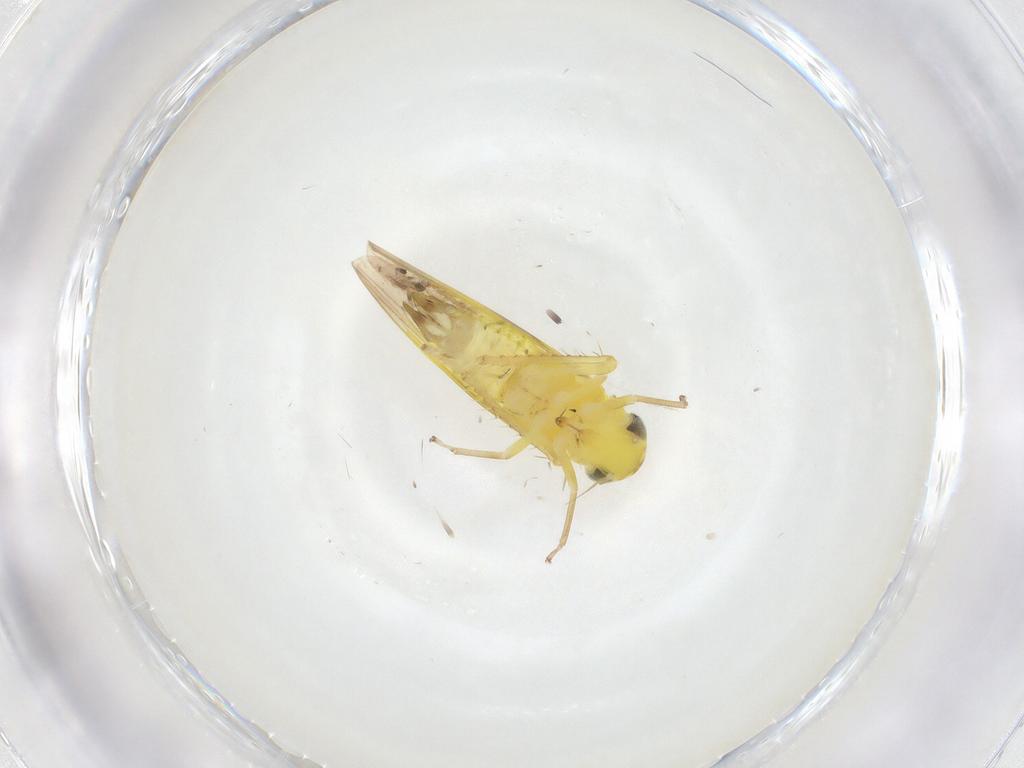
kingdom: Animalia
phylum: Arthropoda
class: Insecta
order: Hemiptera
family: Cicadellidae
